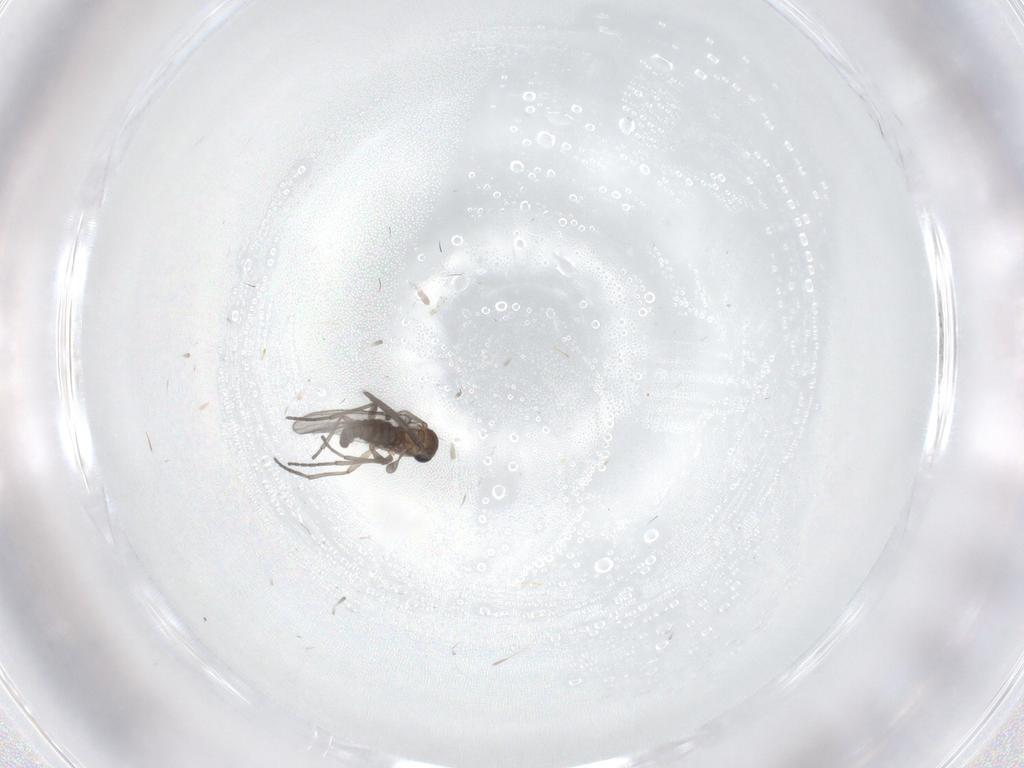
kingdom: Animalia
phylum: Arthropoda
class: Insecta
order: Diptera
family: Sciaridae
